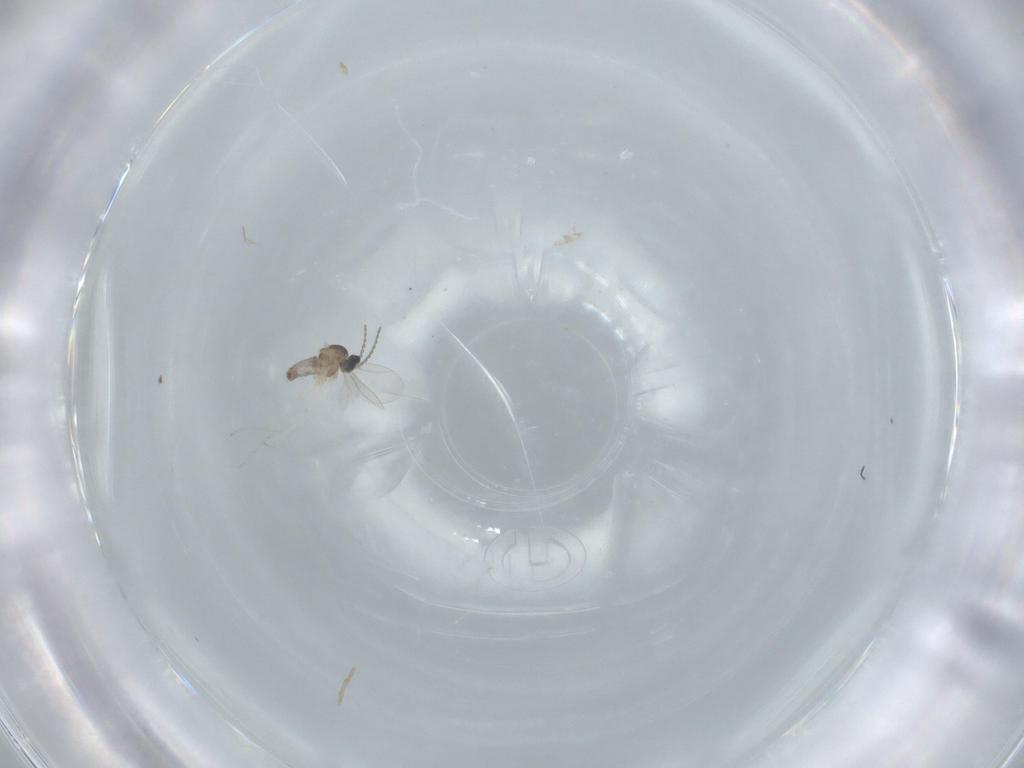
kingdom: Animalia
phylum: Arthropoda
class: Insecta
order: Diptera
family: Cecidomyiidae
